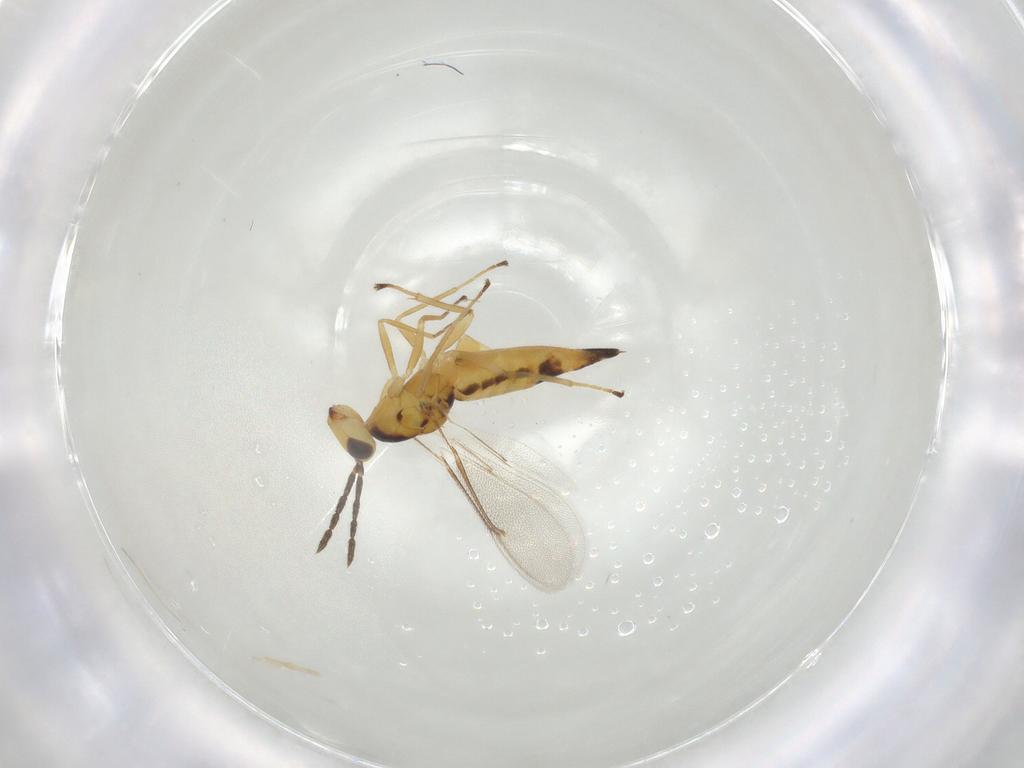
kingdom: Animalia
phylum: Arthropoda
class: Insecta
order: Hymenoptera
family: Eulophidae
